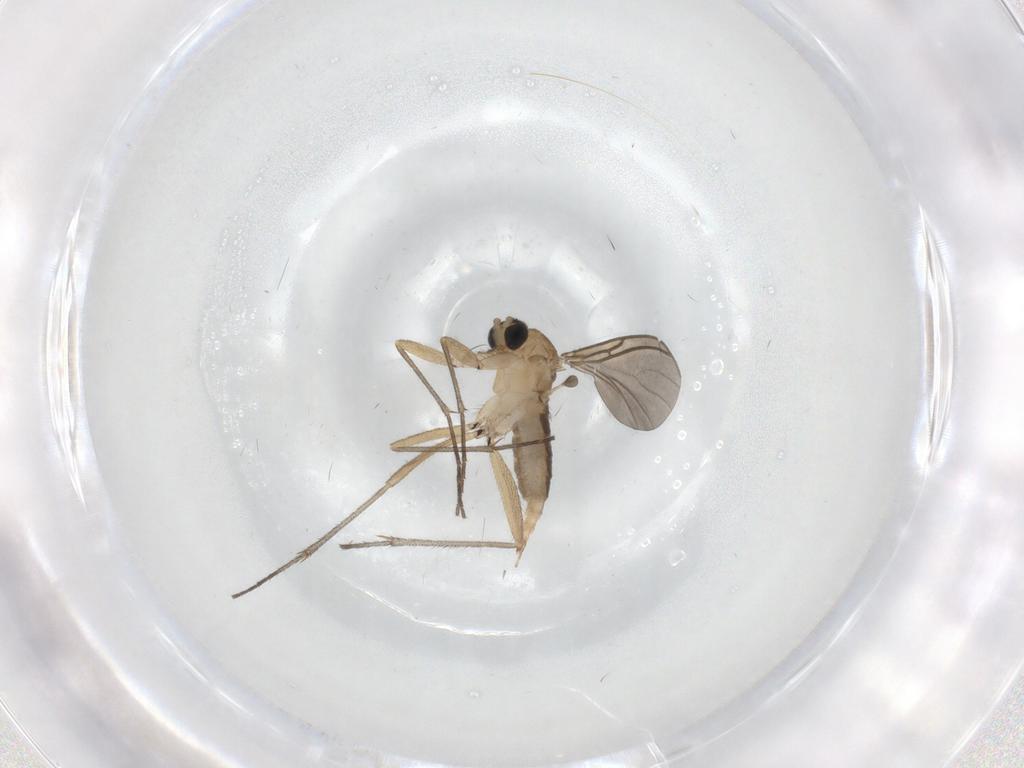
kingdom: Animalia
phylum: Arthropoda
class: Insecta
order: Diptera
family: Sciaridae
